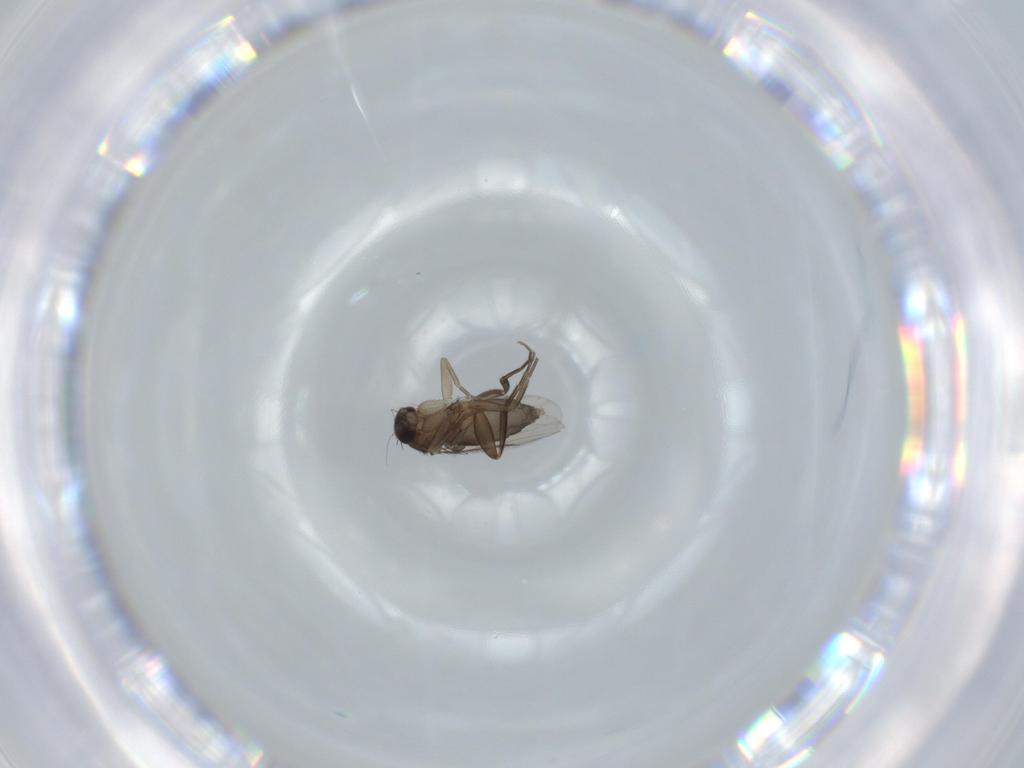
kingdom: Animalia
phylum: Arthropoda
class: Insecta
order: Diptera
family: Phoridae
